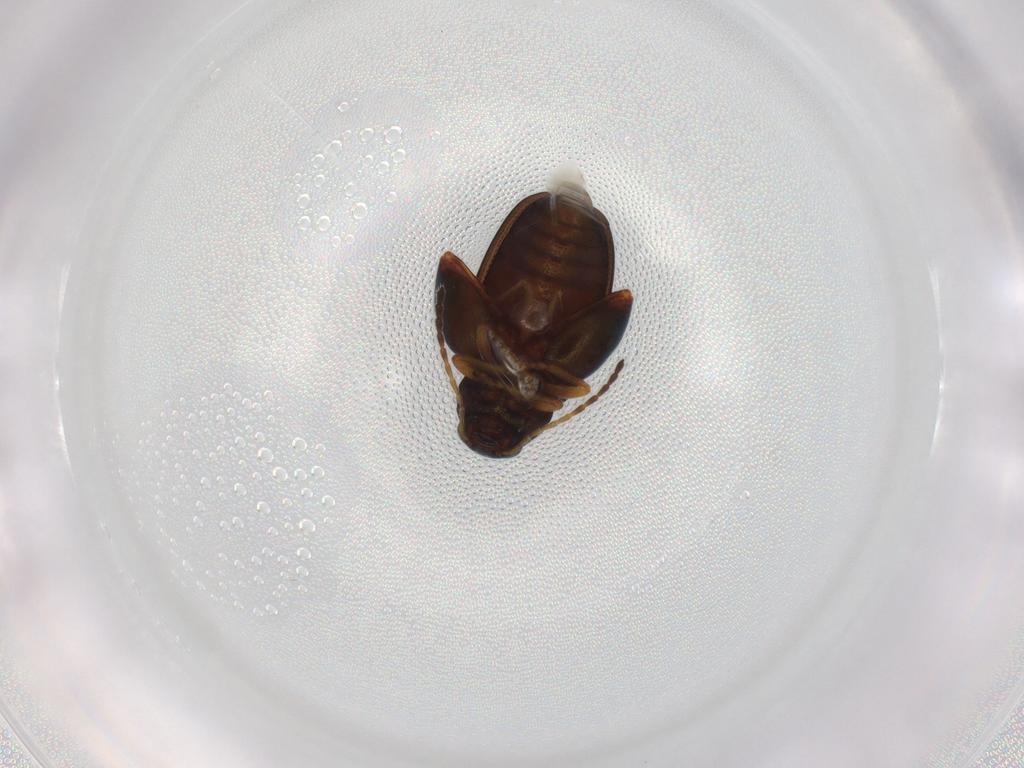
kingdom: Animalia
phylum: Arthropoda
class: Insecta
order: Coleoptera
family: Chrysomelidae
